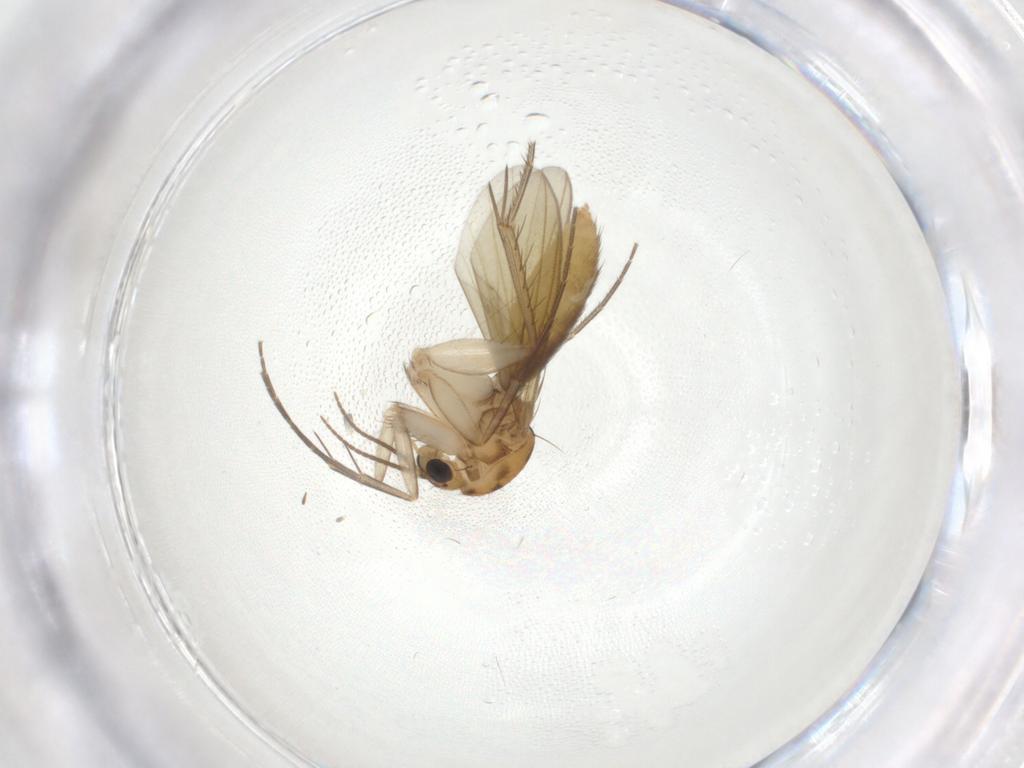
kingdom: Animalia
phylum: Arthropoda
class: Insecta
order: Diptera
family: Mycetophilidae
